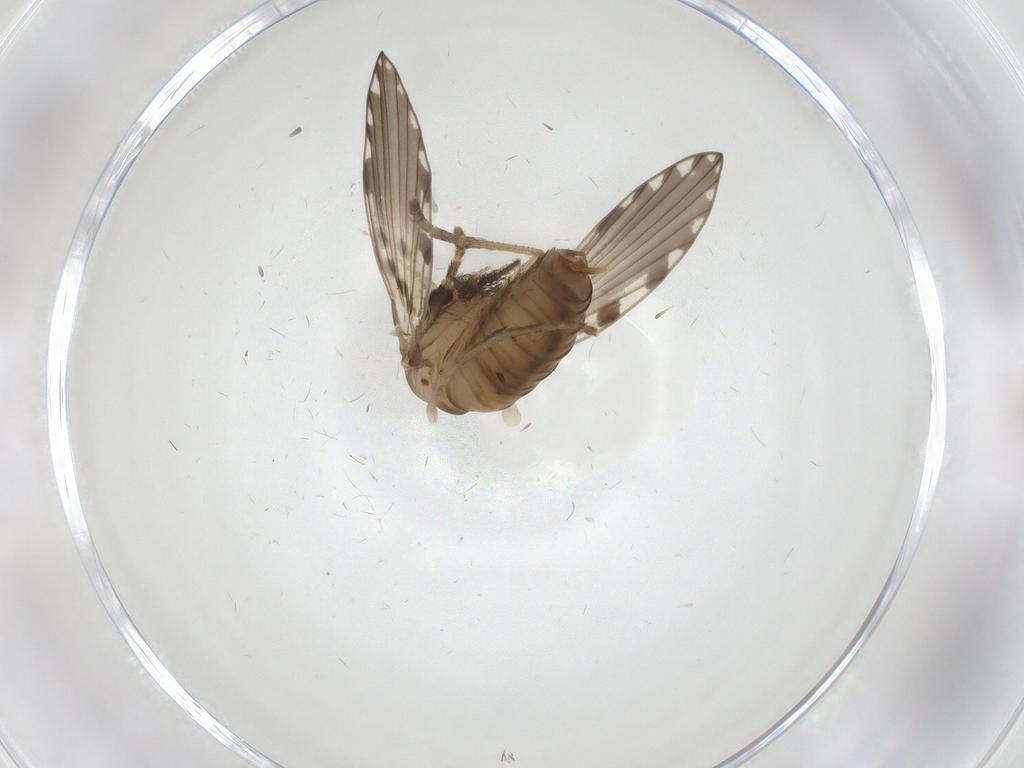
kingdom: Animalia
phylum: Arthropoda
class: Insecta
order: Diptera
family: Psychodidae
